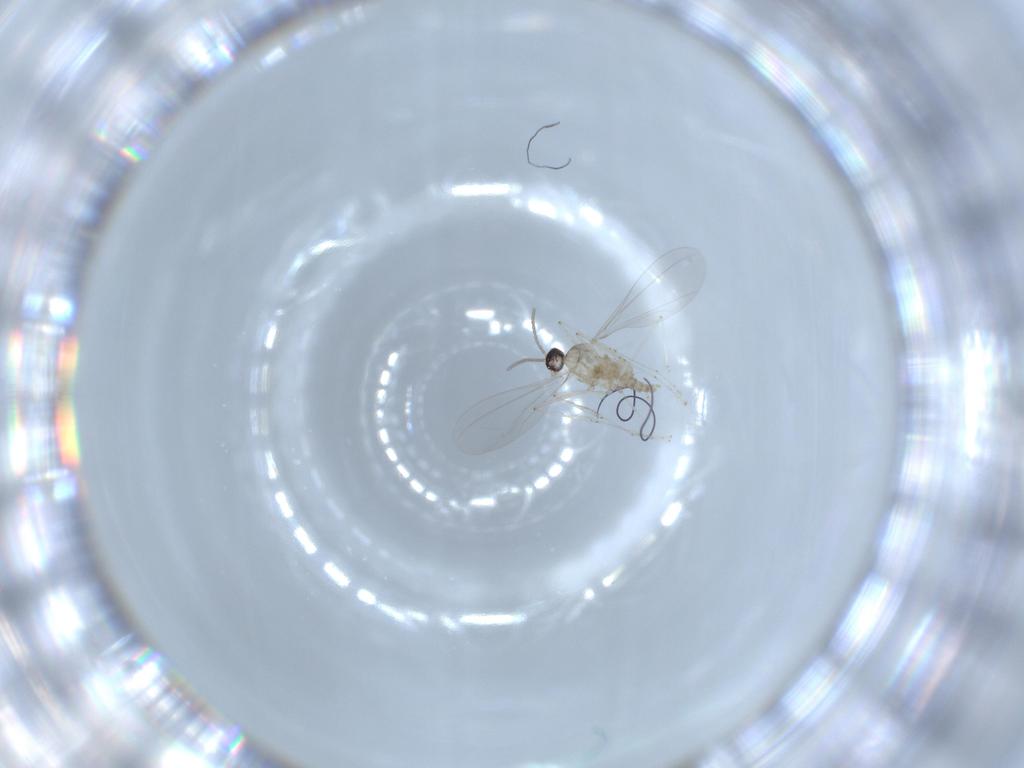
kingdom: Animalia
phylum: Arthropoda
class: Insecta
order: Diptera
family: Cecidomyiidae
